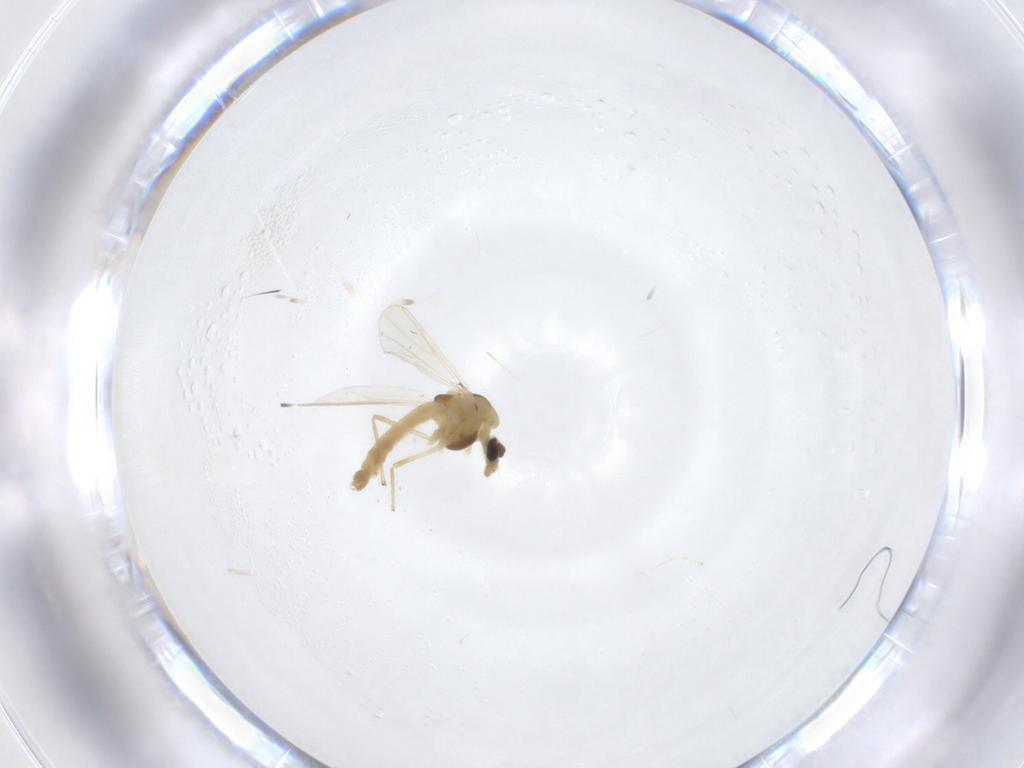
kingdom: Animalia
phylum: Arthropoda
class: Insecta
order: Diptera
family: Chironomidae
